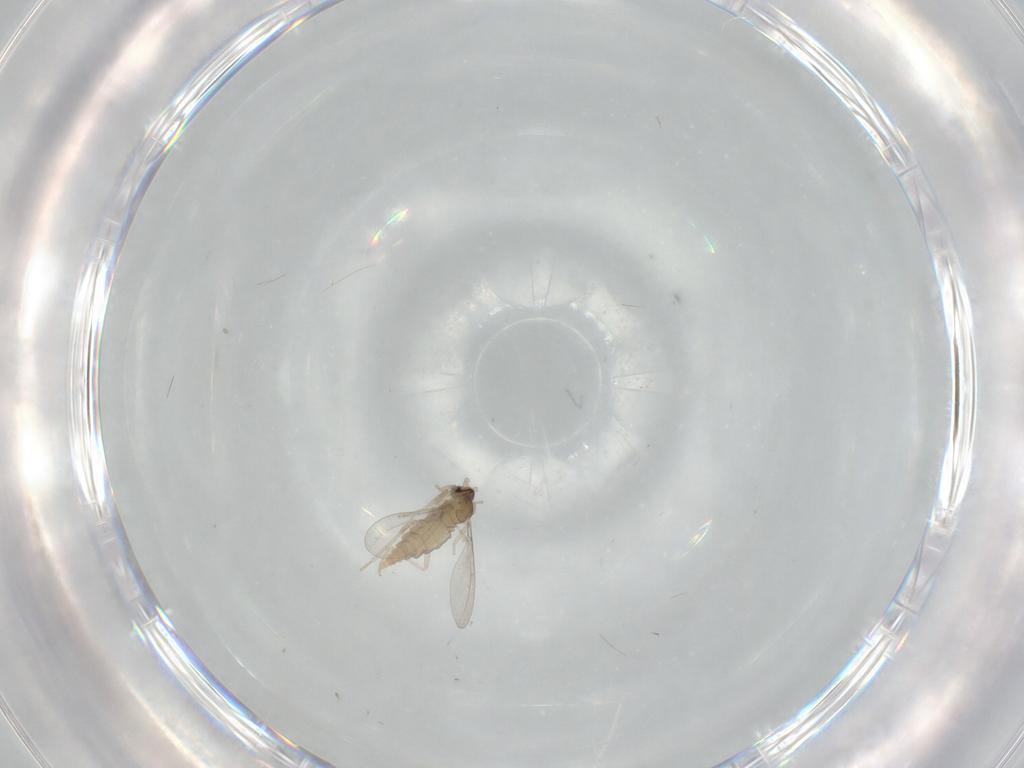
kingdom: Animalia
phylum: Arthropoda
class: Insecta
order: Diptera
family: Cecidomyiidae
